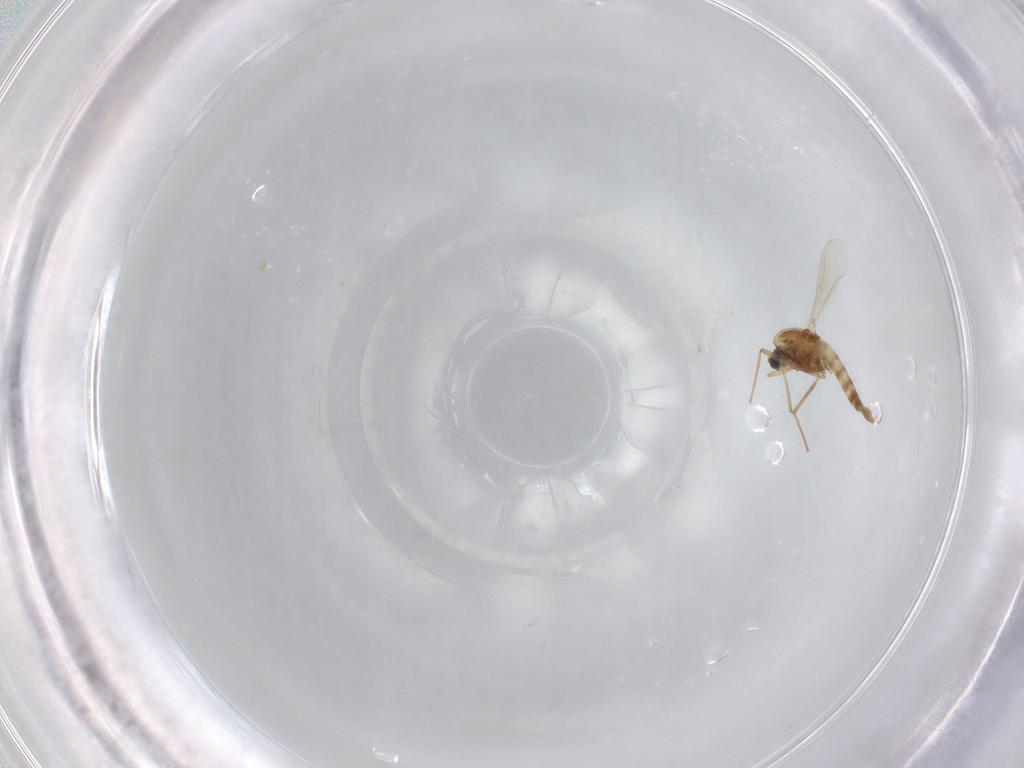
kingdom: Animalia
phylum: Arthropoda
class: Insecta
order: Diptera
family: Chironomidae
